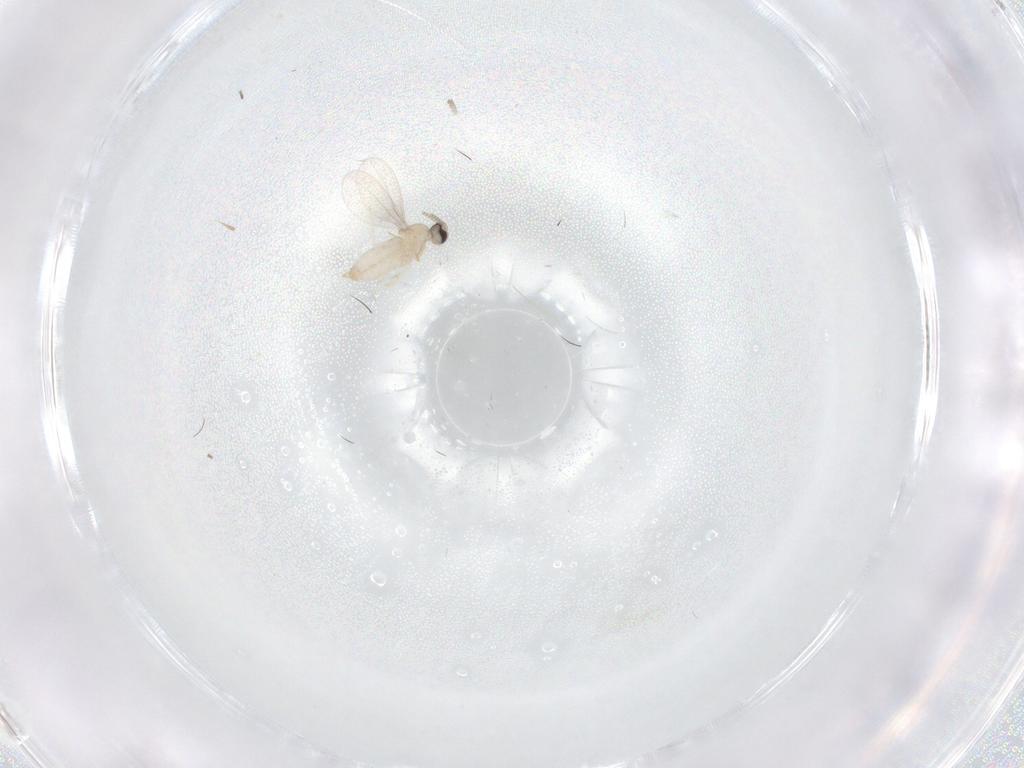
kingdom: Animalia
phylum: Arthropoda
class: Insecta
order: Diptera
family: Cecidomyiidae
